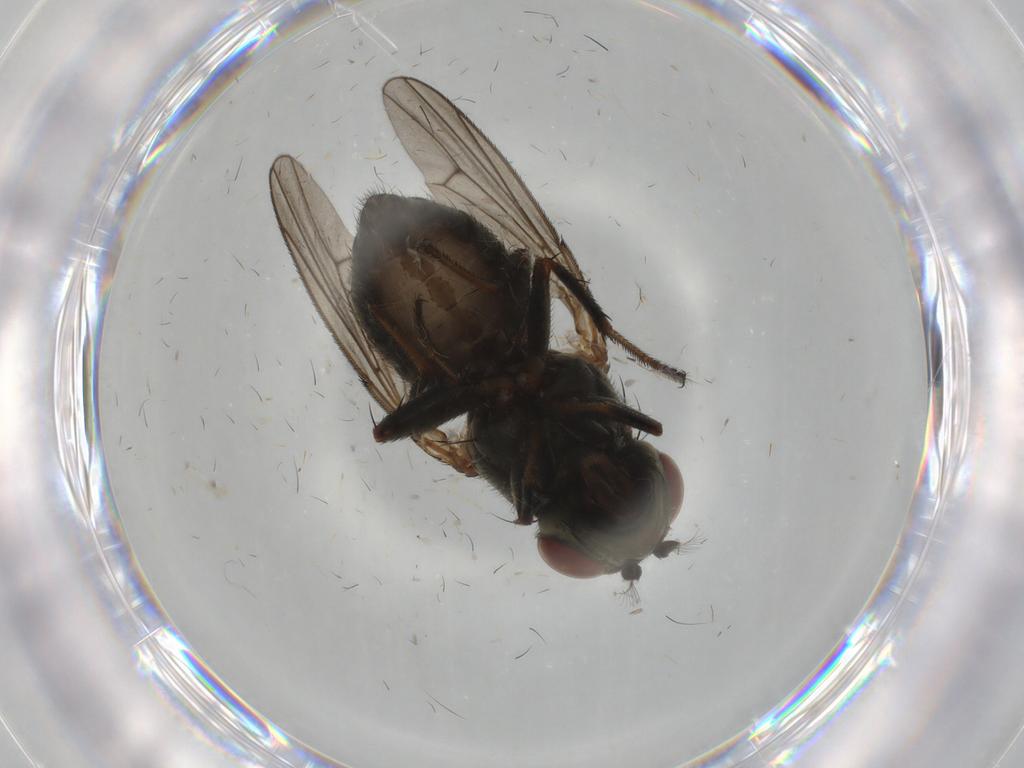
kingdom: Animalia
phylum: Arthropoda
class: Insecta
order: Diptera
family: Ephydridae
